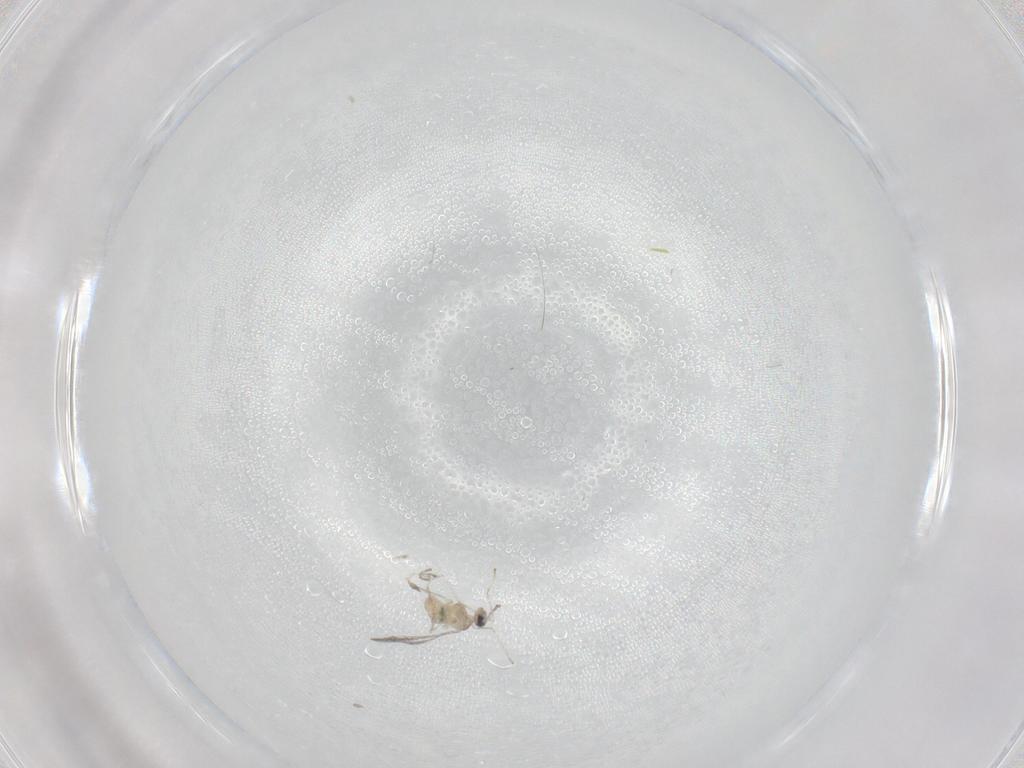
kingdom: Animalia
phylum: Arthropoda
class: Insecta
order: Diptera
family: Cecidomyiidae
